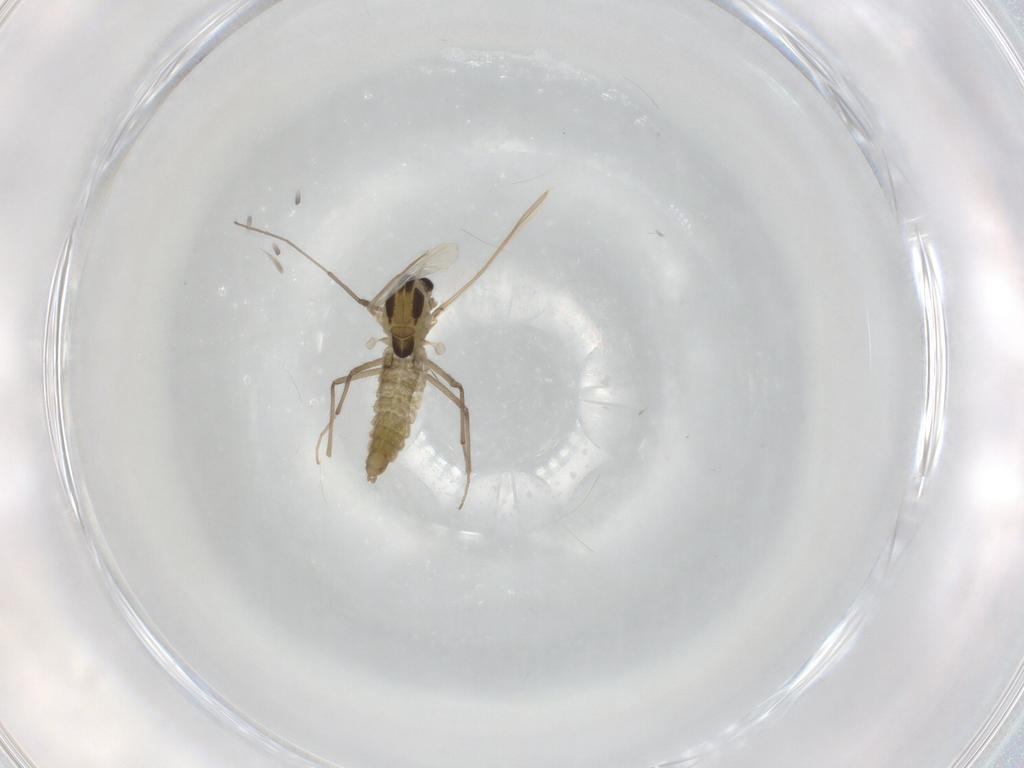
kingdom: Animalia
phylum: Arthropoda
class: Insecta
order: Diptera
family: Chironomidae
